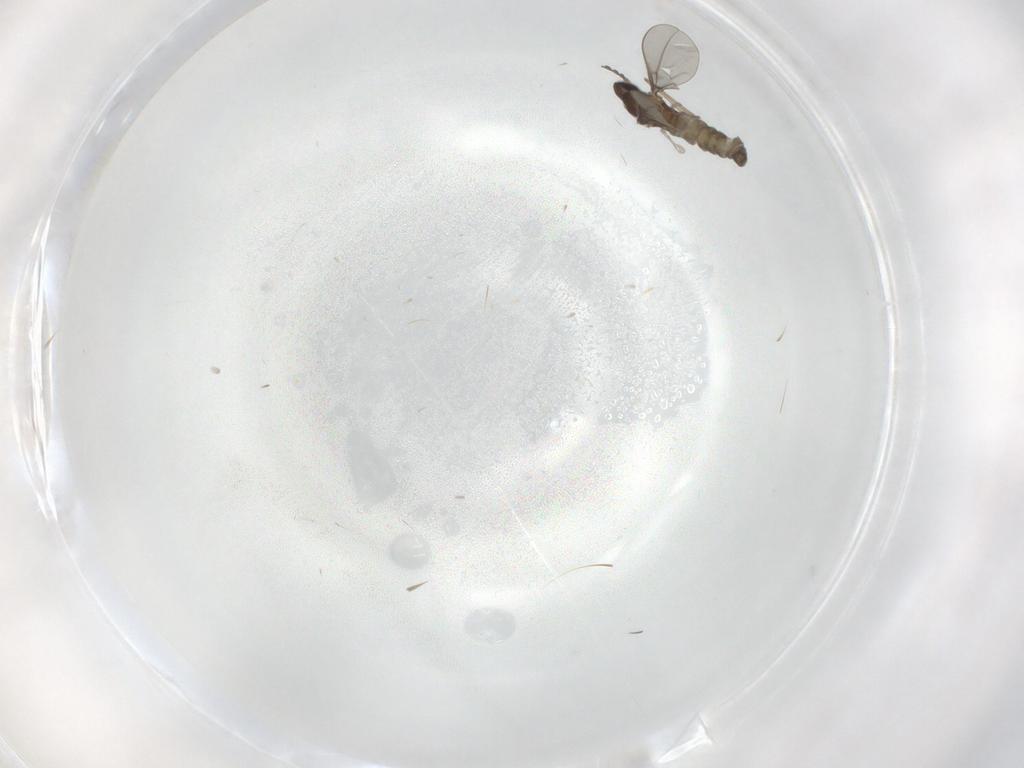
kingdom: Animalia
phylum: Arthropoda
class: Insecta
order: Diptera
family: Cecidomyiidae
